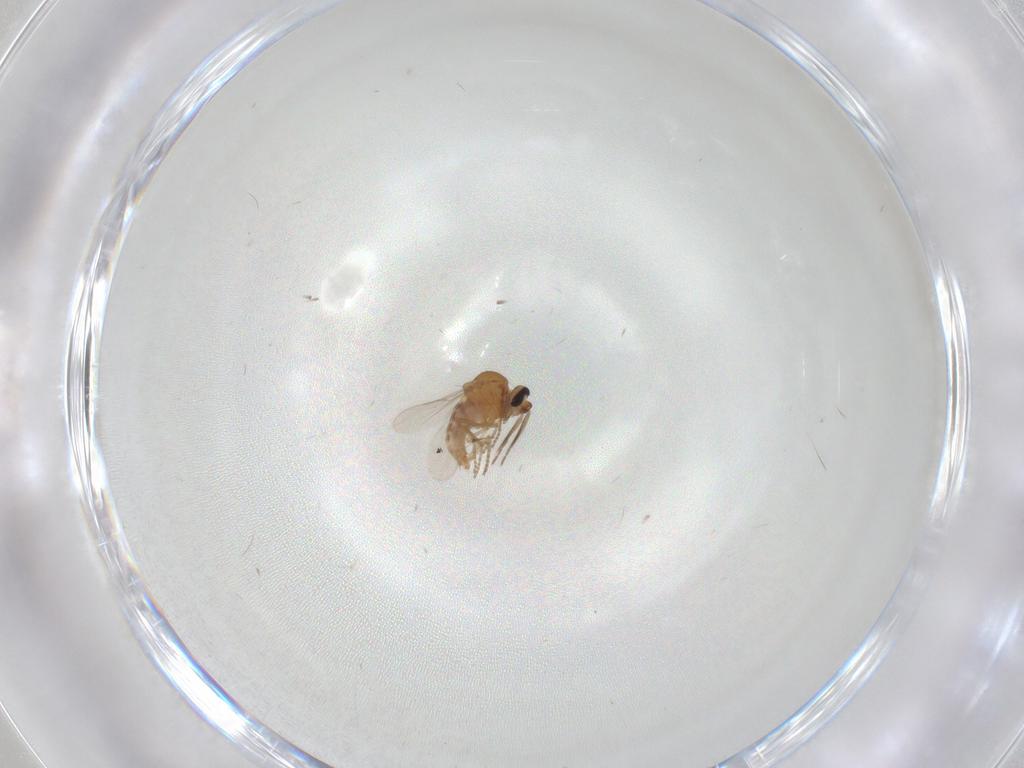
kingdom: Animalia
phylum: Arthropoda
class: Insecta
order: Diptera
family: Cecidomyiidae
